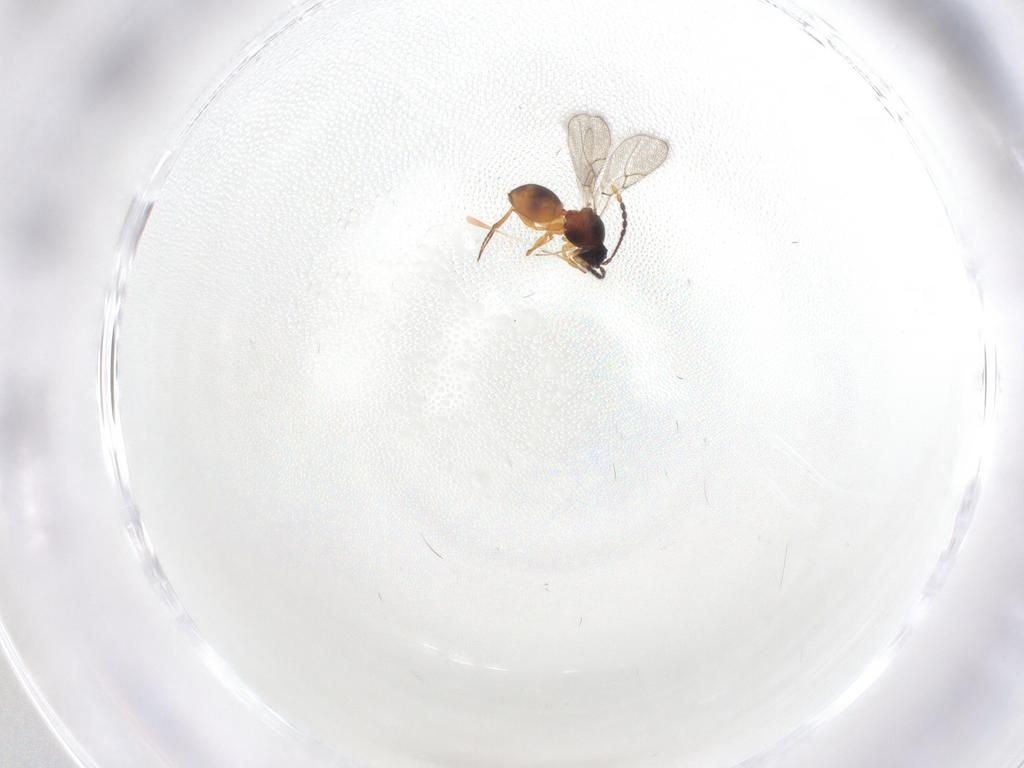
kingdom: Animalia
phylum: Arthropoda
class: Insecta
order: Hymenoptera
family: Figitidae
